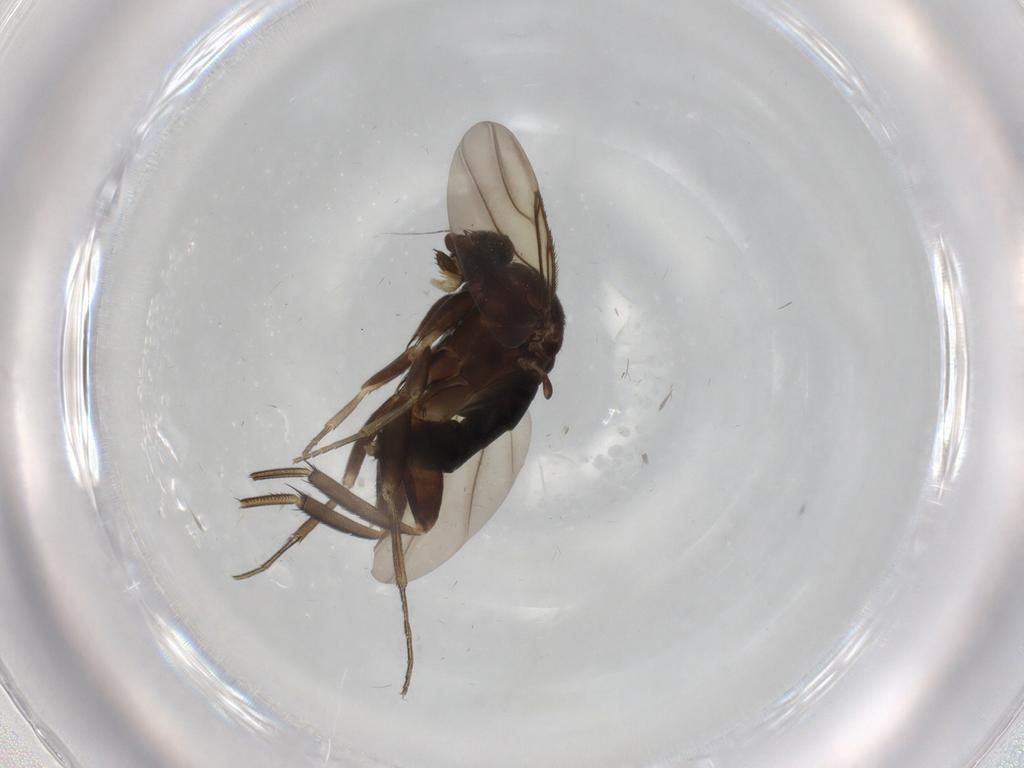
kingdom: Animalia
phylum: Arthropoda
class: Insecta
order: Diptera
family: Phoridae
